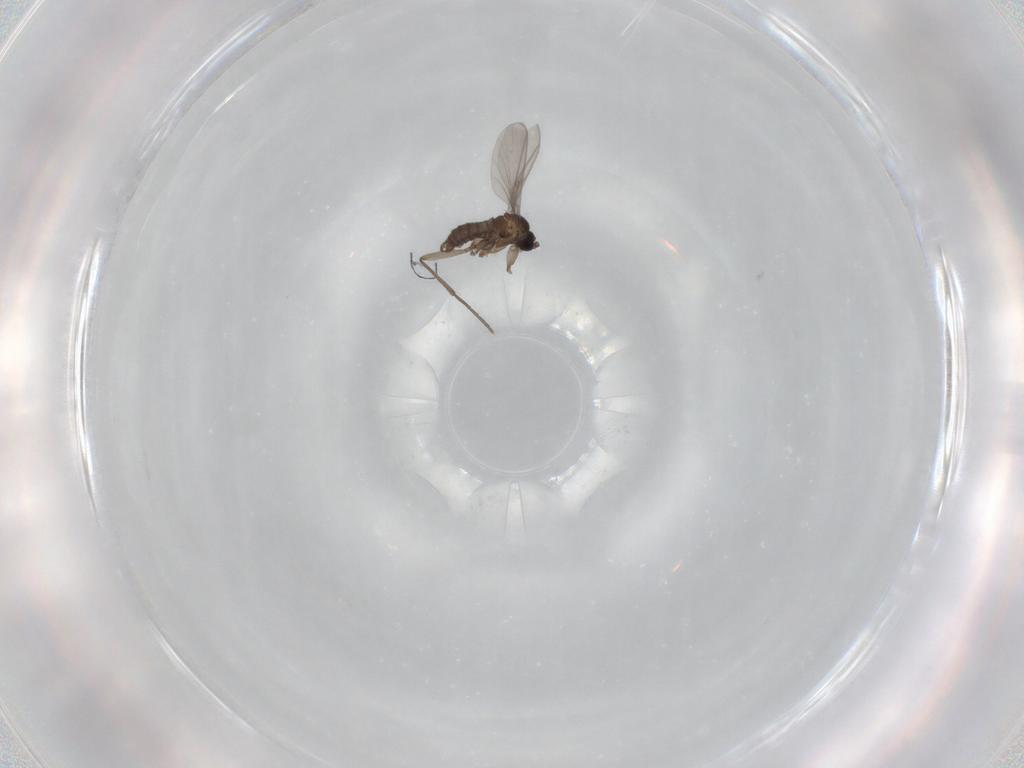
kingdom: Animalia
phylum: Arthropoda
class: Insecta
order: Diptera
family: Sciaridae
